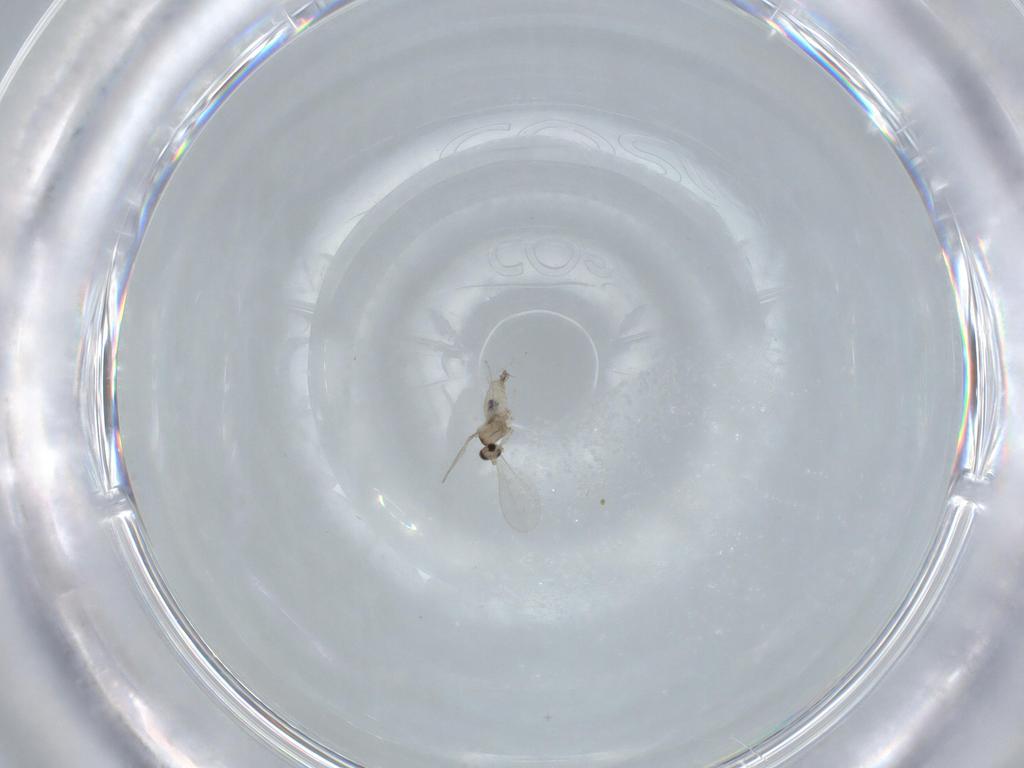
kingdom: Animalia
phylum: Arthropoda
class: Insecta
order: Diptera
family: Cecidomyiidae
